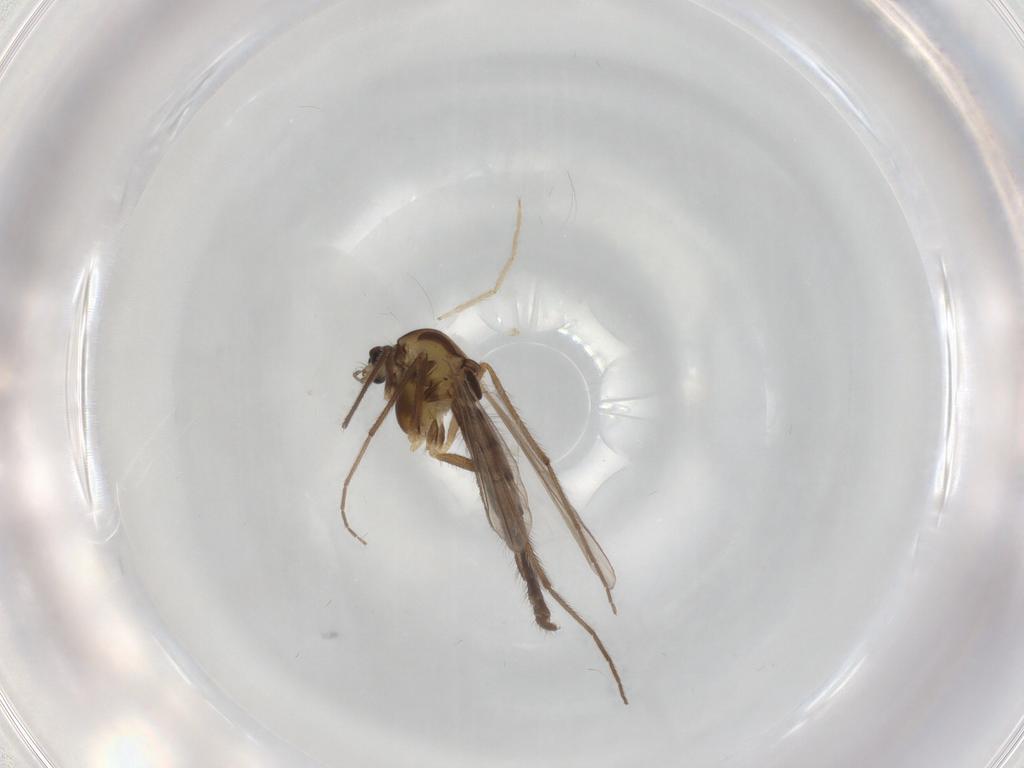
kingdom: Animalia
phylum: Arthropoda
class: Insecta
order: Diptera
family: Chironomidae
